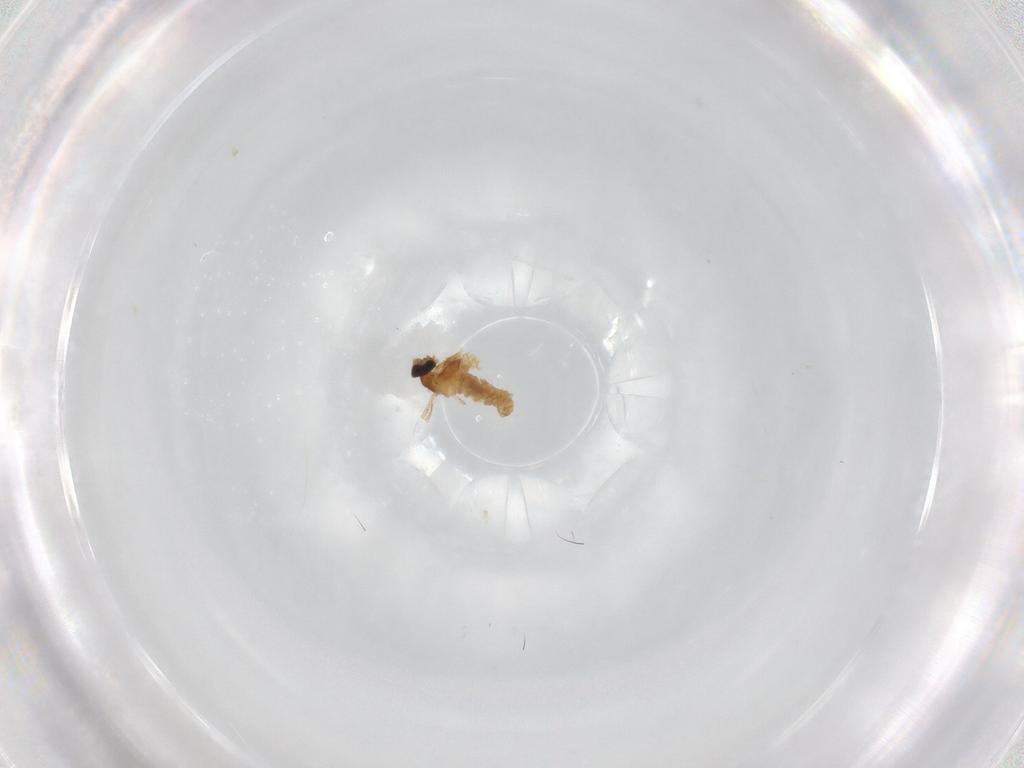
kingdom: Animalia
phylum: Arthropoda
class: Insecta
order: Diptera
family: Cecidomyiidae
